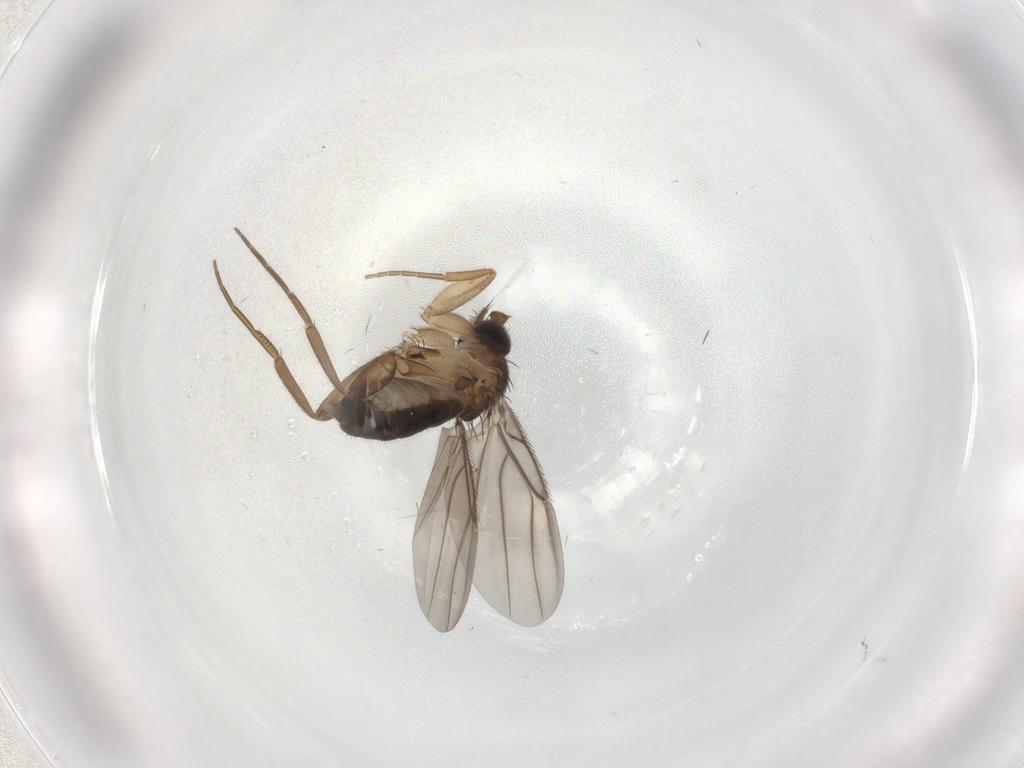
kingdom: Animalia
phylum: Arthropoda
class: Insecta
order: Diptera
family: Phoridae
